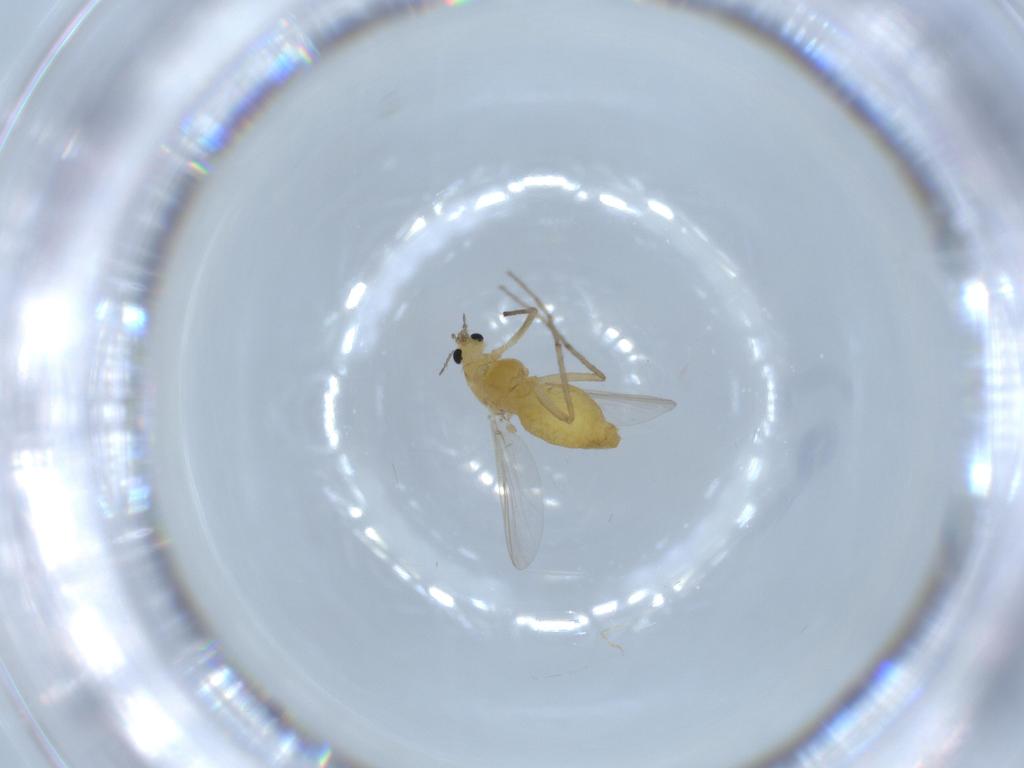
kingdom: Animalia
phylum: Arthropoda
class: Insecta
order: Diptera
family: Chironomidae
